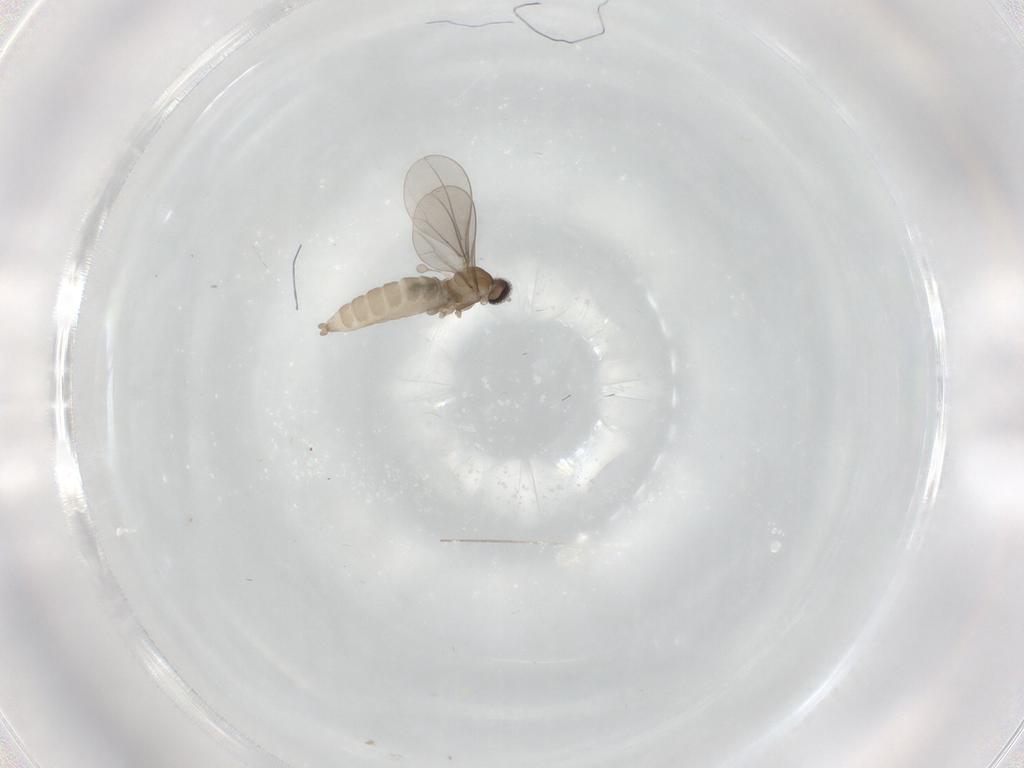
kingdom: Animalia
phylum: Arthropoda
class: Insecta
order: Diptera
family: Cecidomyiidae
